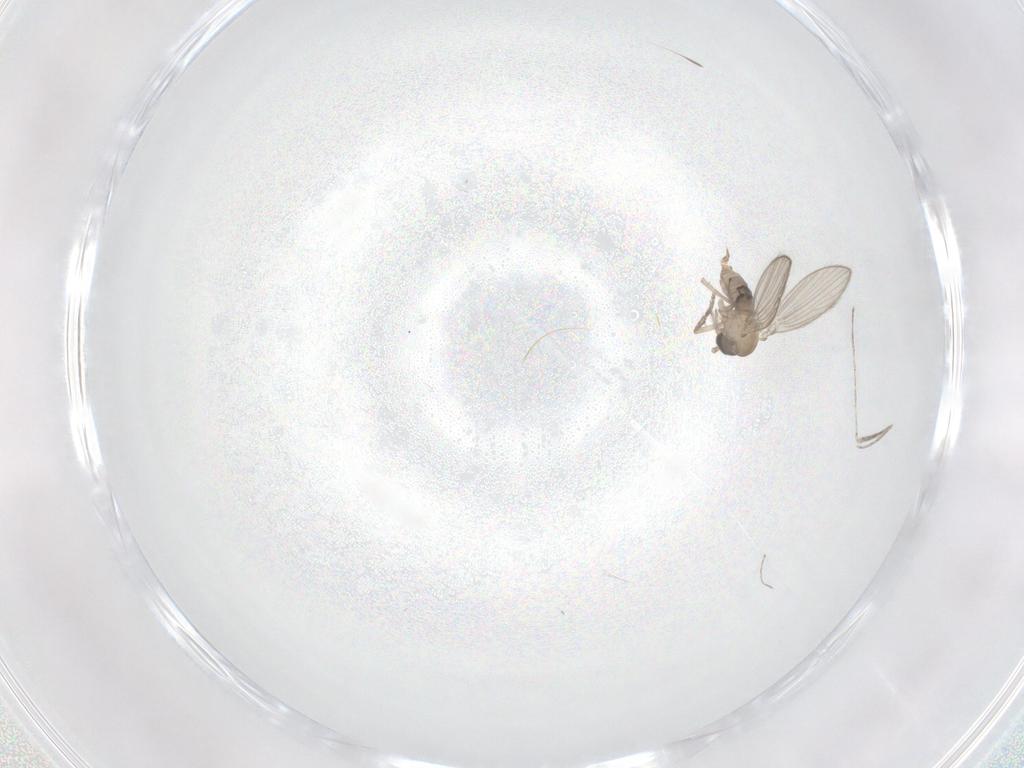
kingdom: Animalia
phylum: Arthropoda
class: Insecta
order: Diptera
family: Psychodidae
